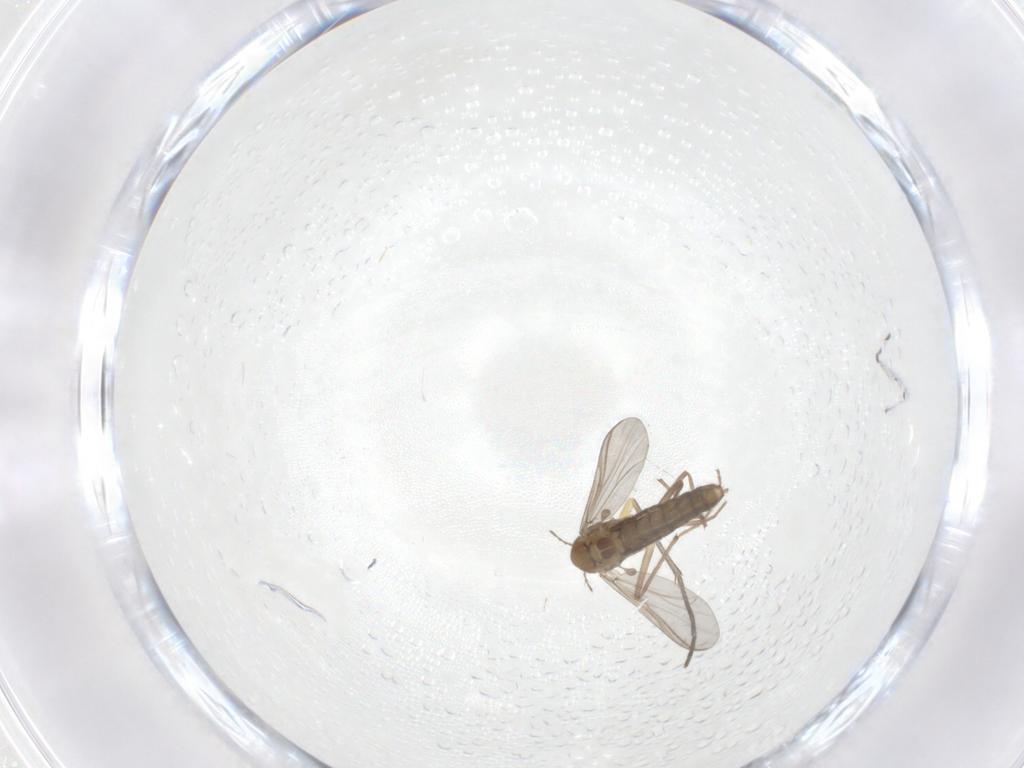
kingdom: Animalia
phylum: Arthropoda
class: Insecta
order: Diptera
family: Chironomidae
